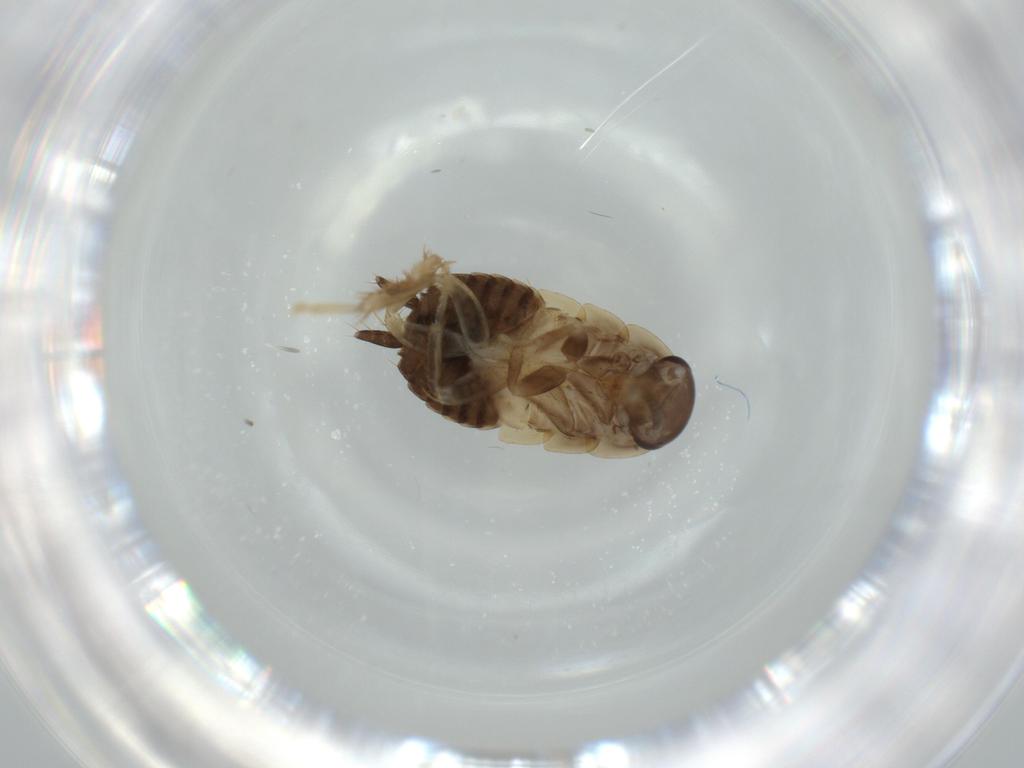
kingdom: Animalia
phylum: Arthropoda
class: Insecta
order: Blattodea
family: Ectobiidae
